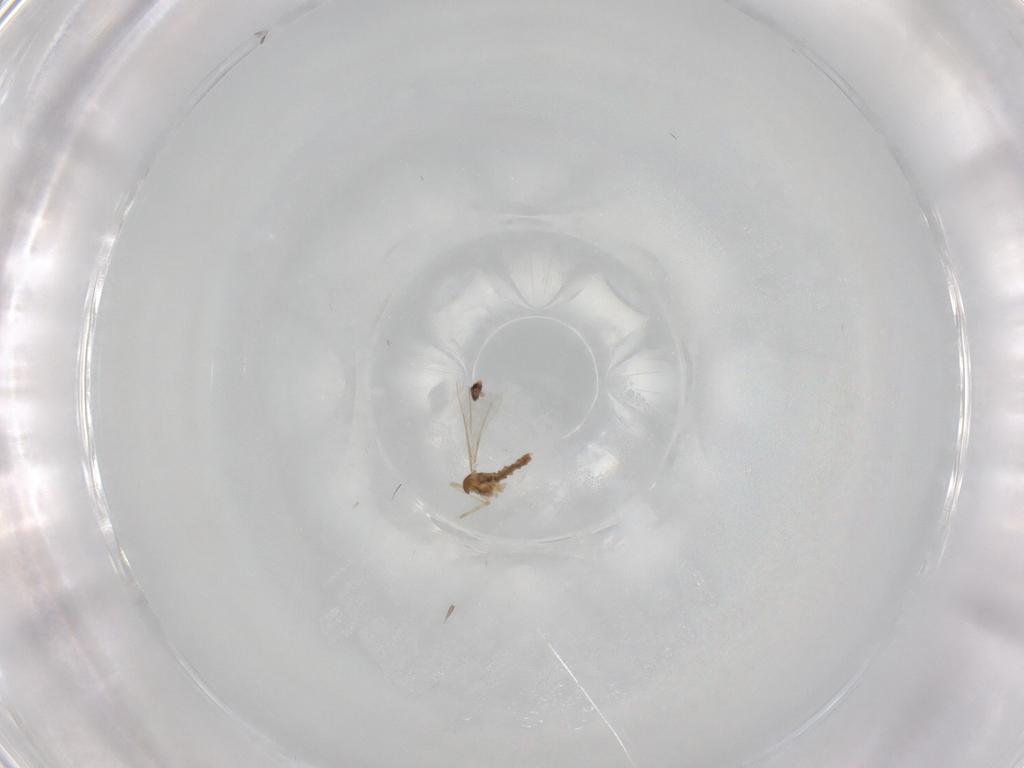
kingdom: Animalia
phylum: Arthropoda
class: Insecta
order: Diptera
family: Cecidomyiidae
